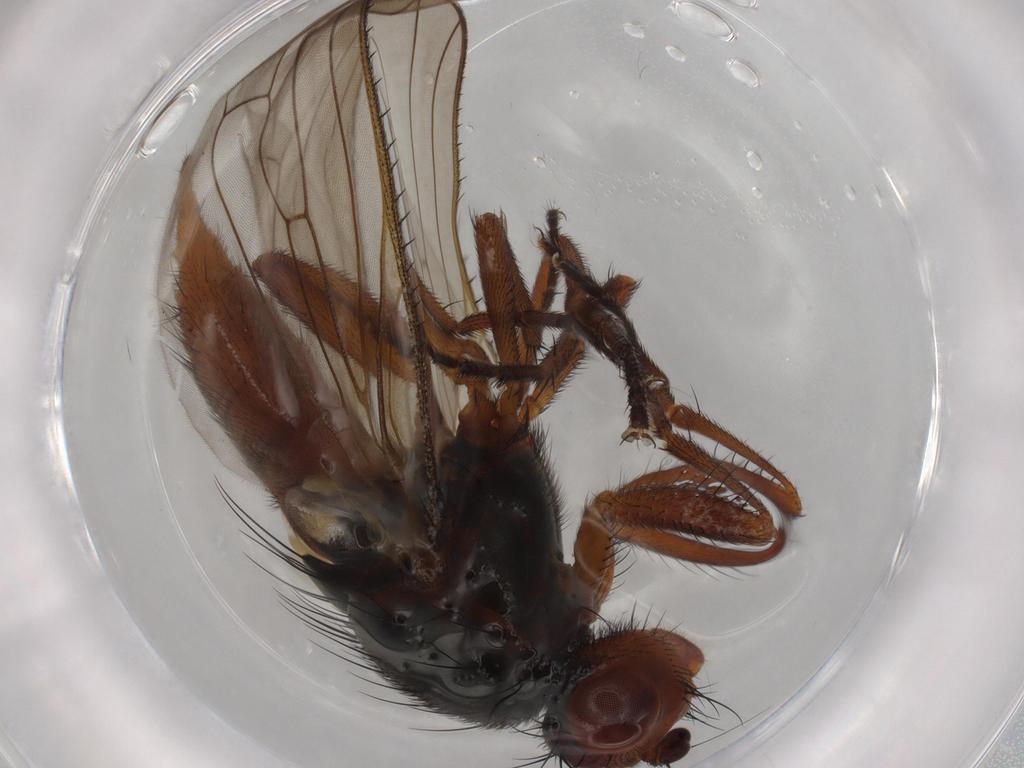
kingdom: Animalia
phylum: Arthropoda
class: Insecta
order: Diptera
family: Heleomyzidae
